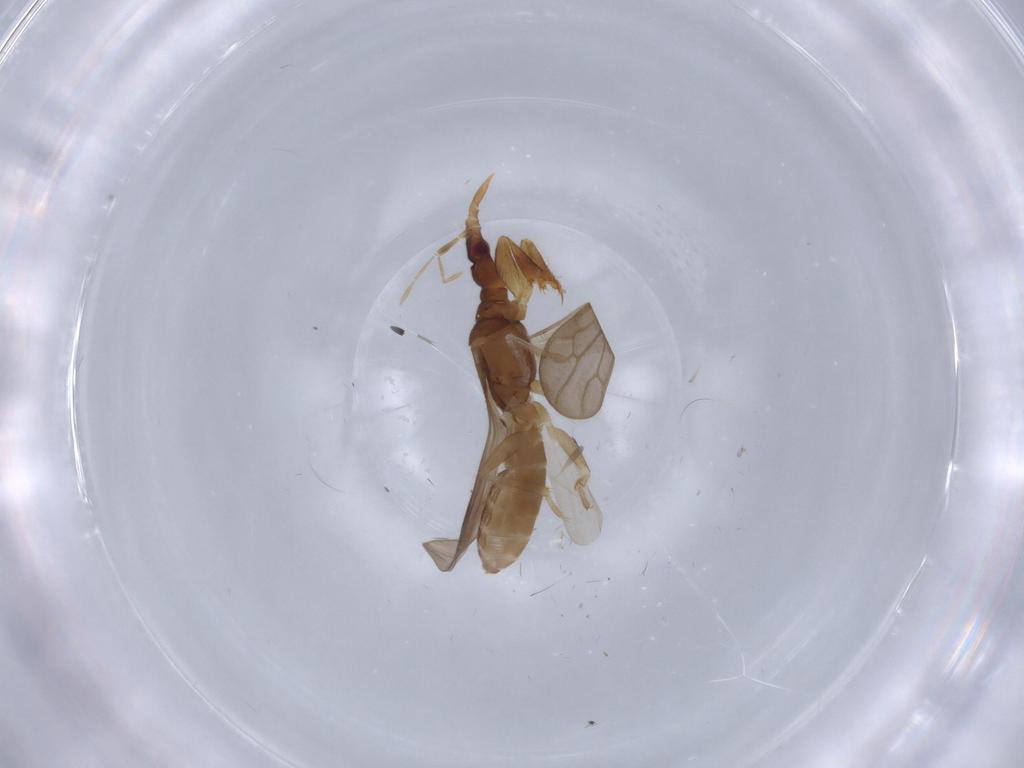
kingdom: Animalia
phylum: Arthropoda
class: Insecta
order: Hemiptera
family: Enicocephalidae
